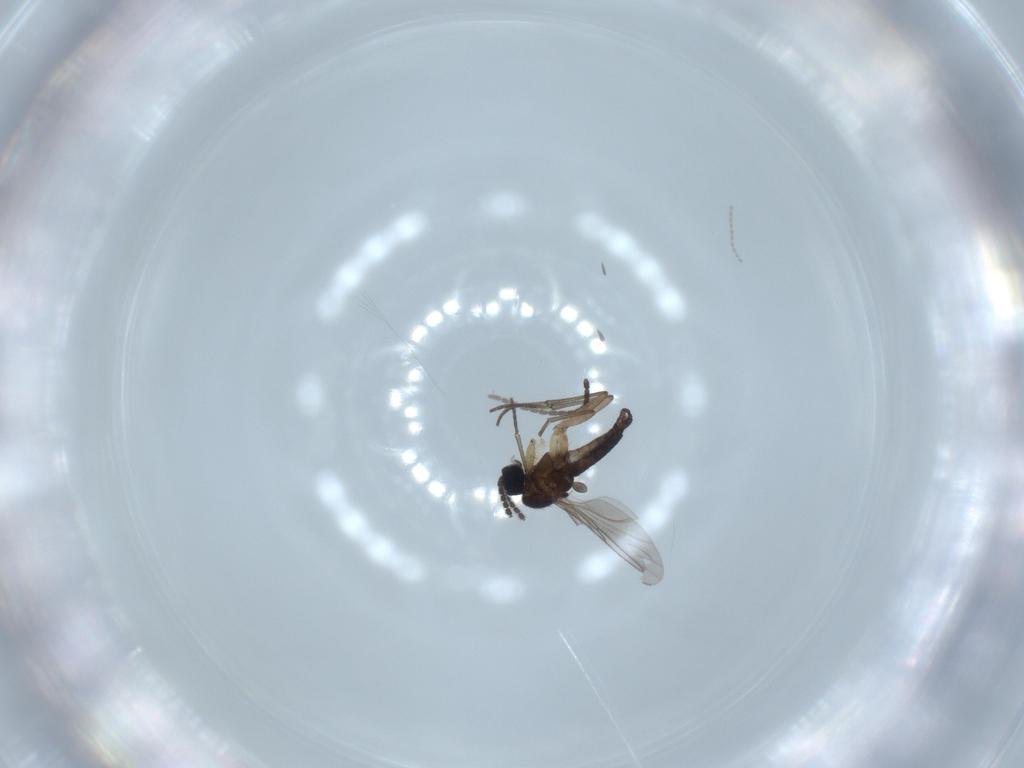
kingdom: Animalia
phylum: Arthropoda
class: Insecta
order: Diptera
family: Sciaridae
